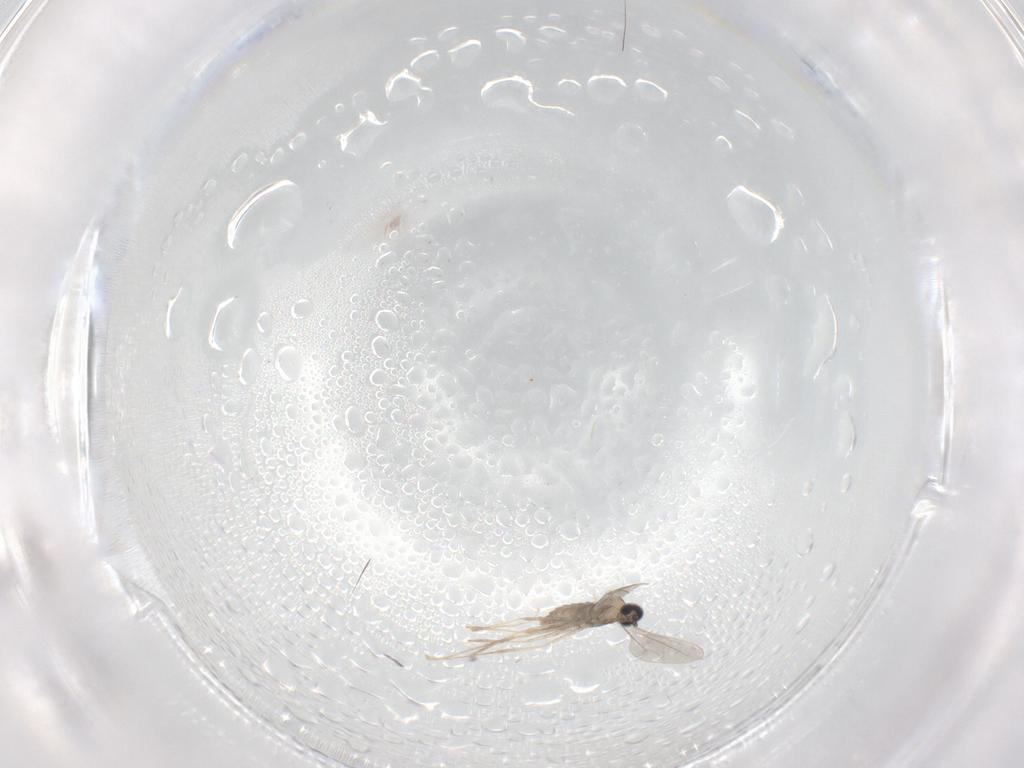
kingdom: Animalia
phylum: Arthropoda
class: Insecta
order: Diptera
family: Cecidomyiidae
